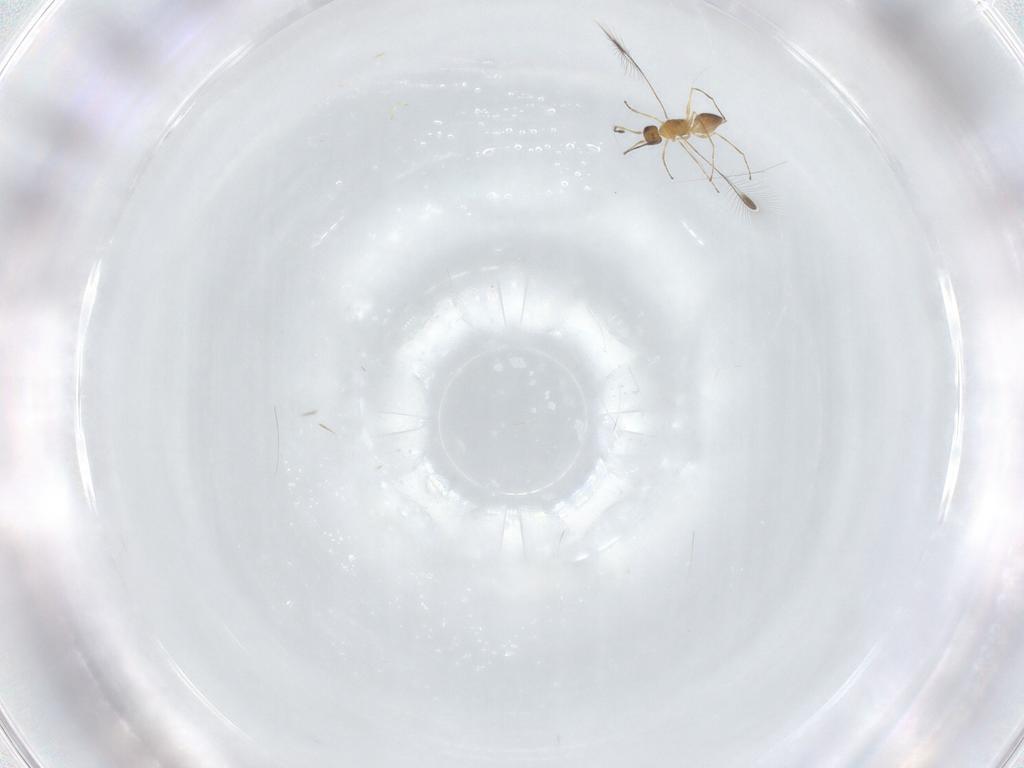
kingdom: Animalia
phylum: Arthropoda
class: Insecta
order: Hymenoptera
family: Mymaridae
